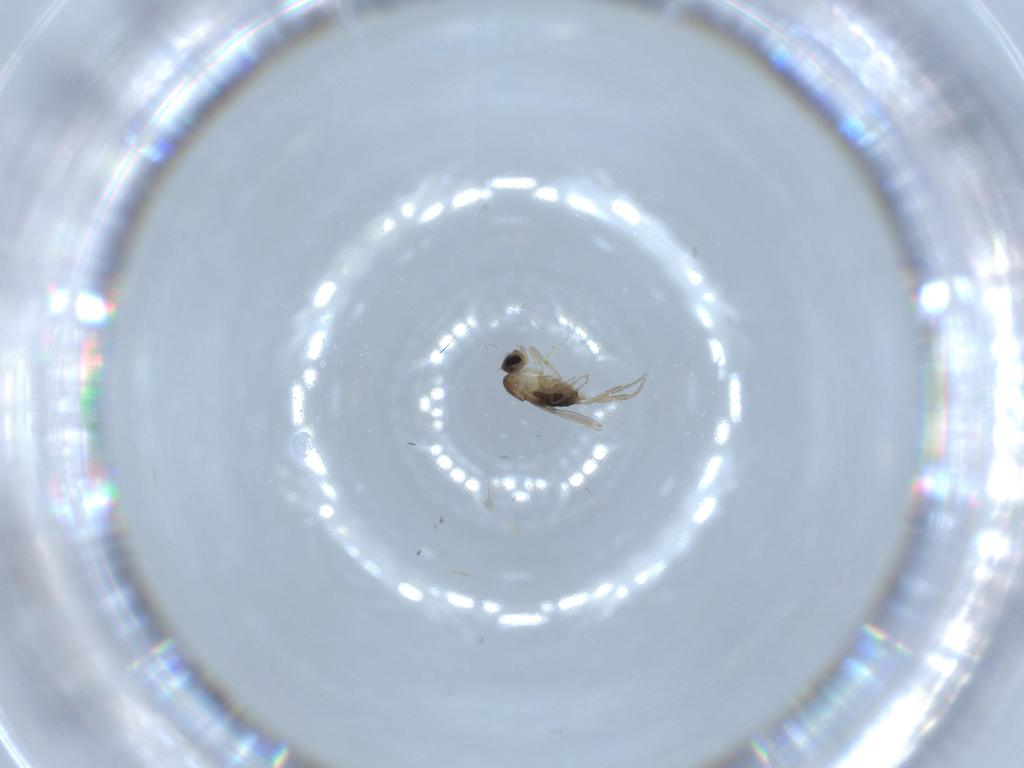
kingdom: Animalia
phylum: Arthropoda
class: Insecta
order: Diptera
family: Phoridae
